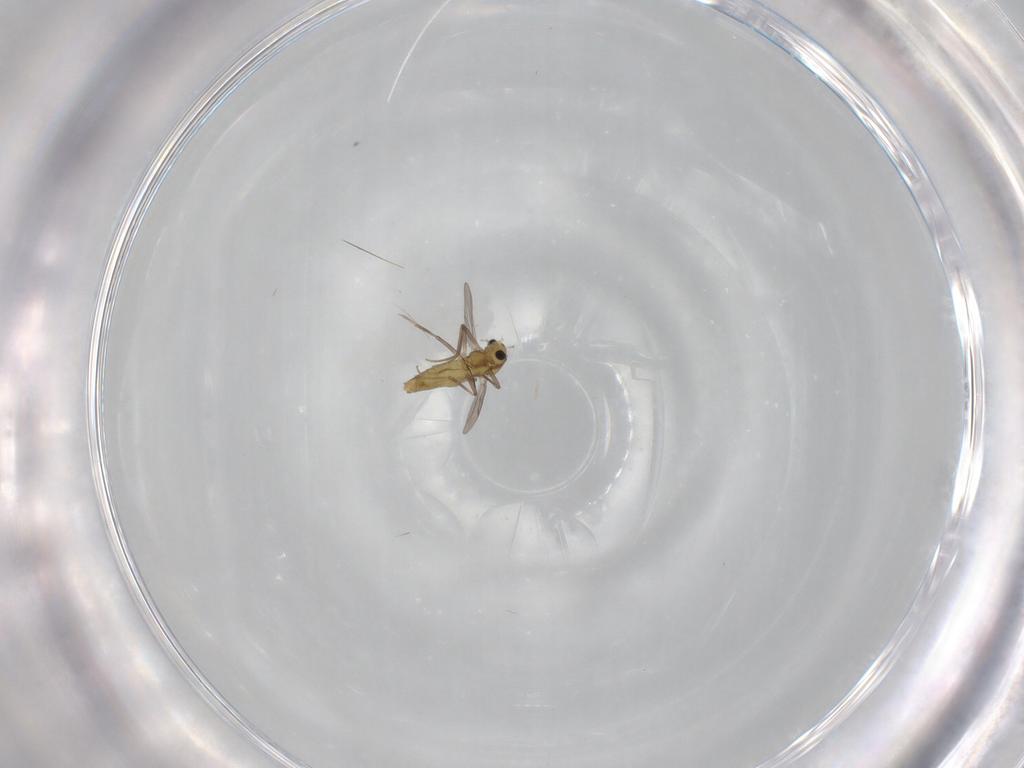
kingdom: Animalia
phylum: Arthropoda
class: Insecta
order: Diptera
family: Chironomidae
